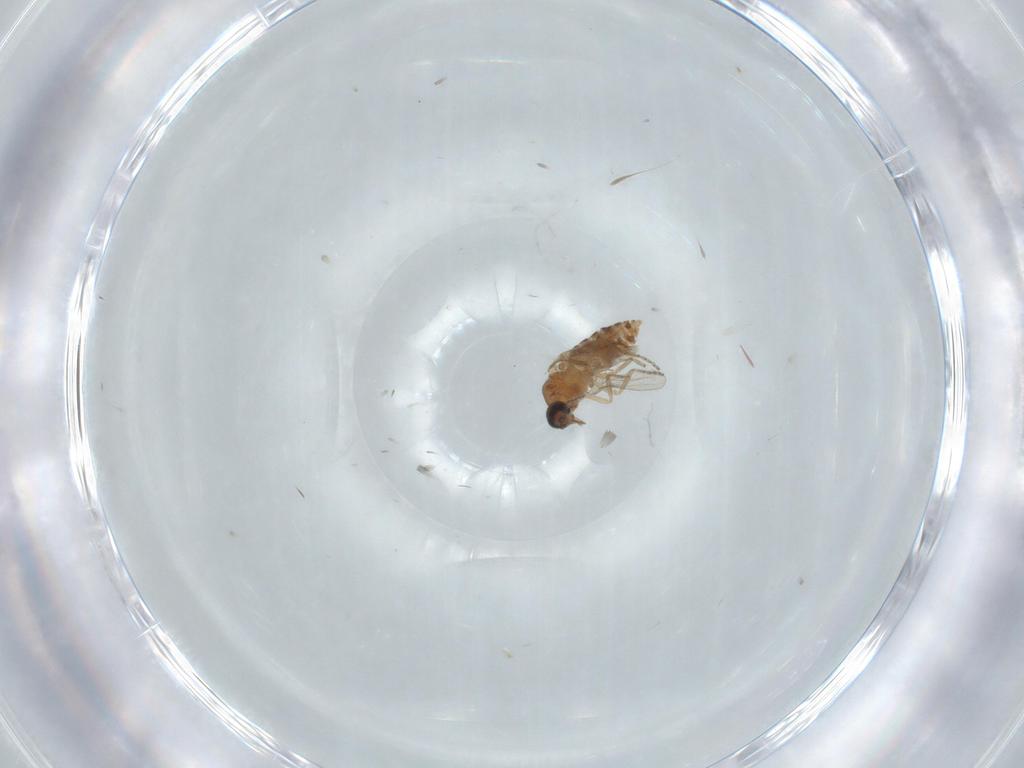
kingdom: Animalia
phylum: Arthropoda
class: Insecta
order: Diptera
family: Ceratopogonidae
